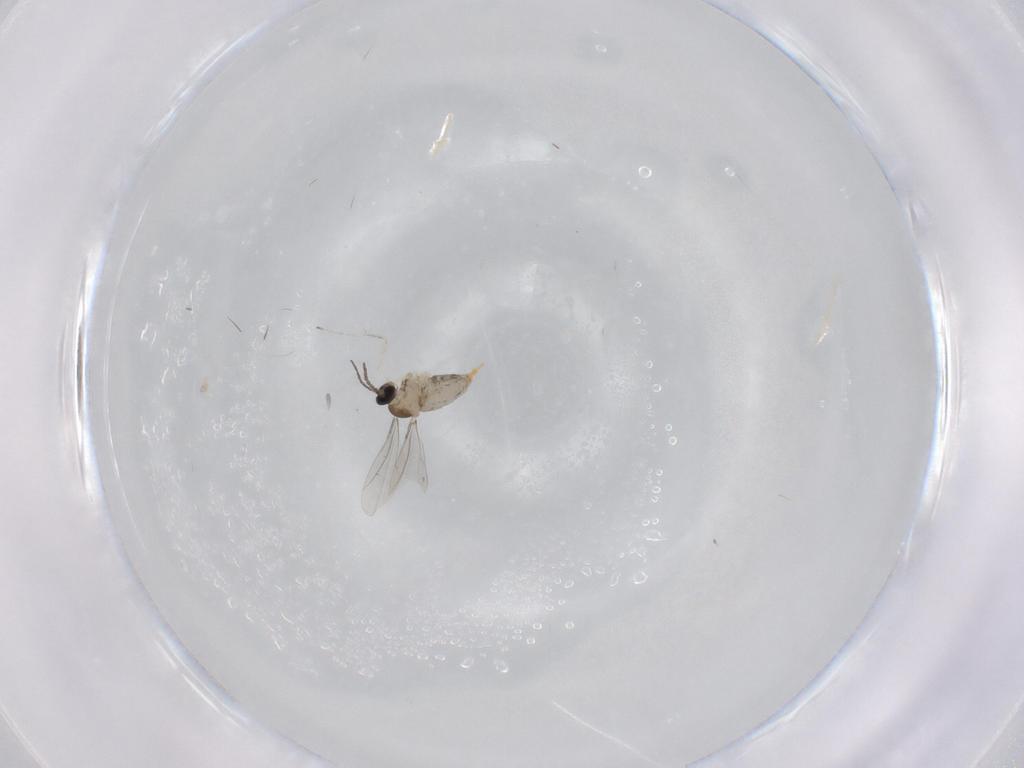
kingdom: Animalia
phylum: Arthropoda
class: Insecta
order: Diptera
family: Cecidomyiidae
